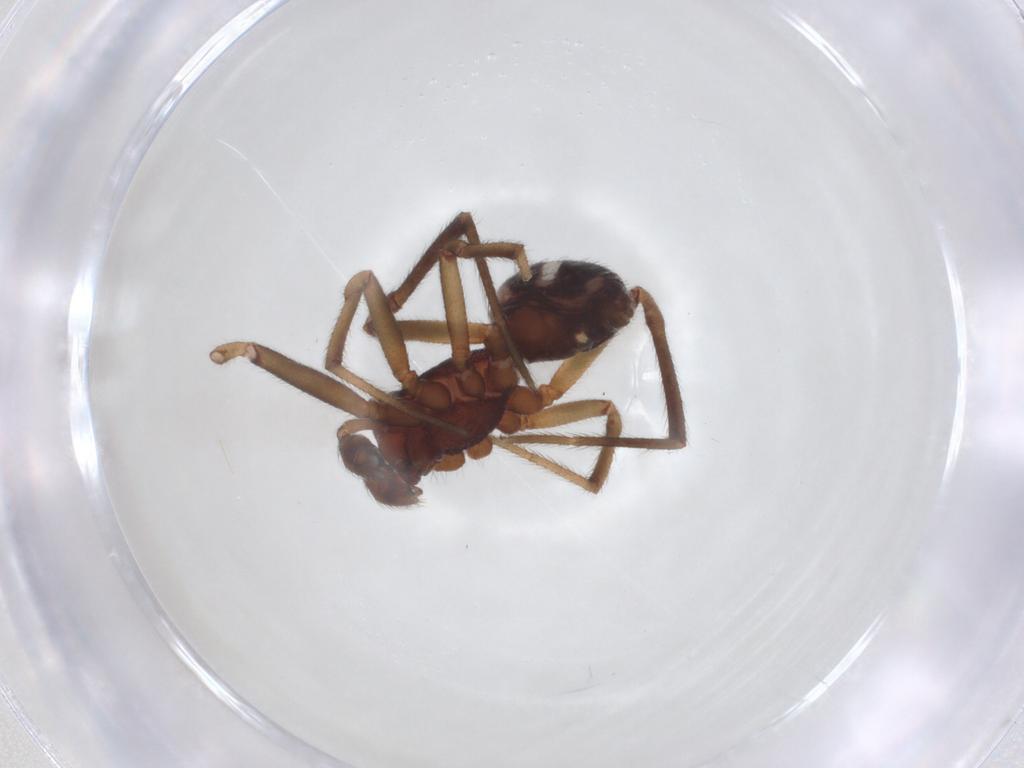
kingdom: Animalia
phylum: Arthropoda
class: Arachnida
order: Araneae
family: Theridiidae
